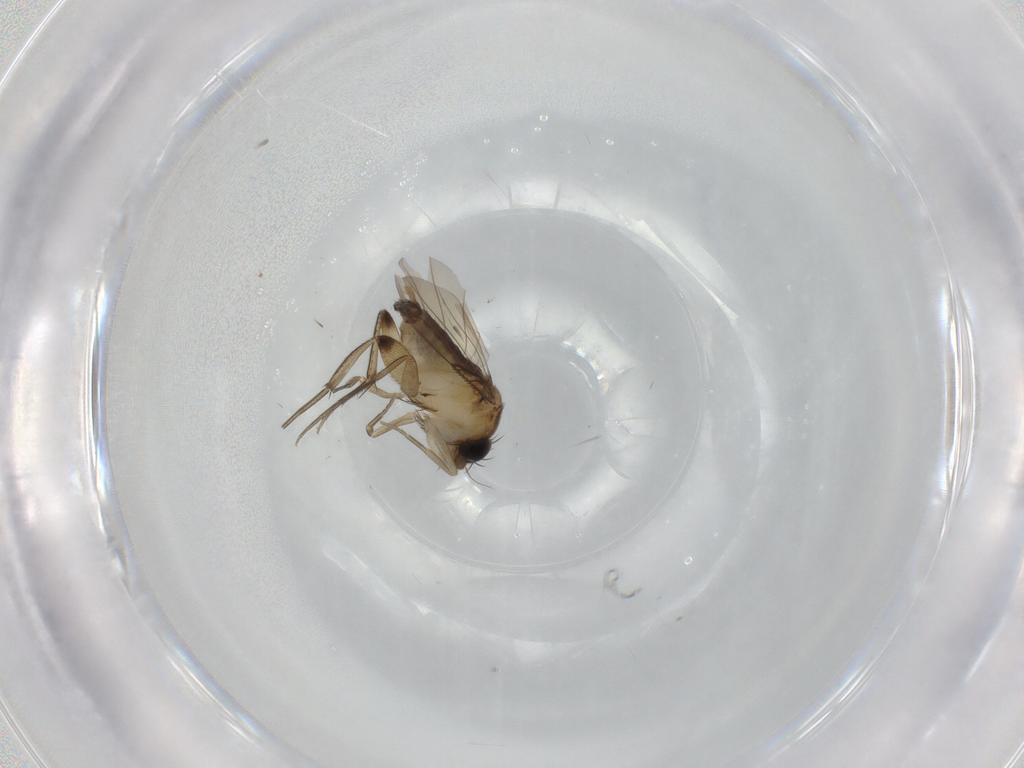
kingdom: Animalia
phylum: Arthropoda
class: Insecta
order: Diptera
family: Phoridae
